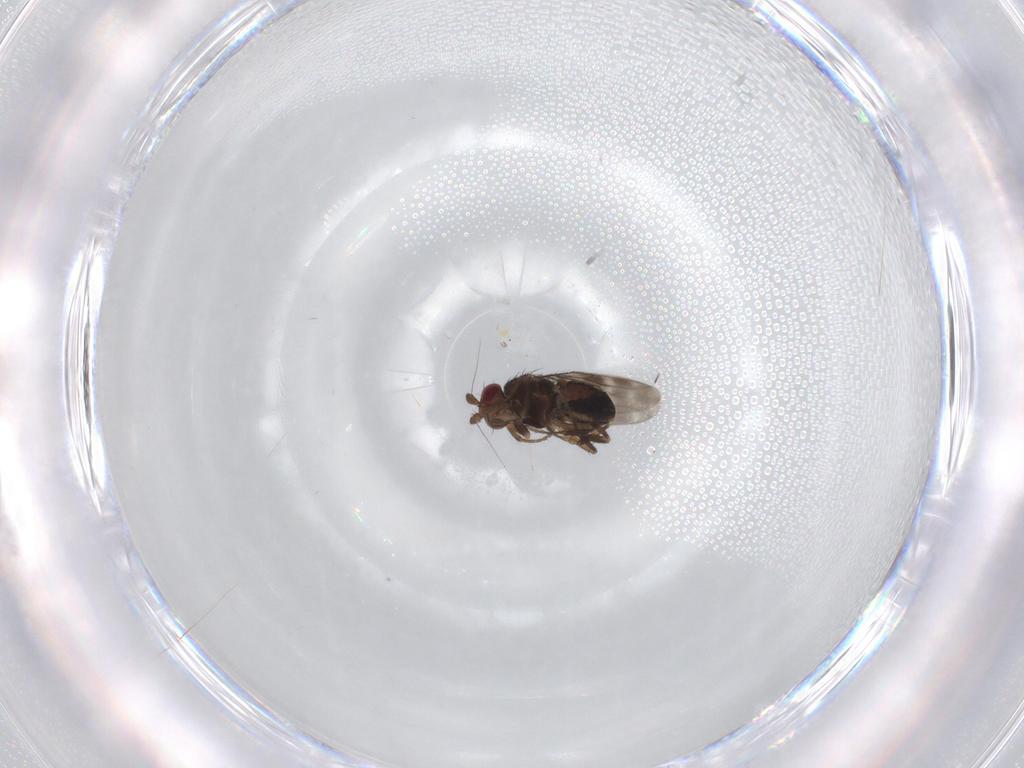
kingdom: Animalia
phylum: Arthropoda
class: Insecta
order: Diptera
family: Sphaeroceridae
